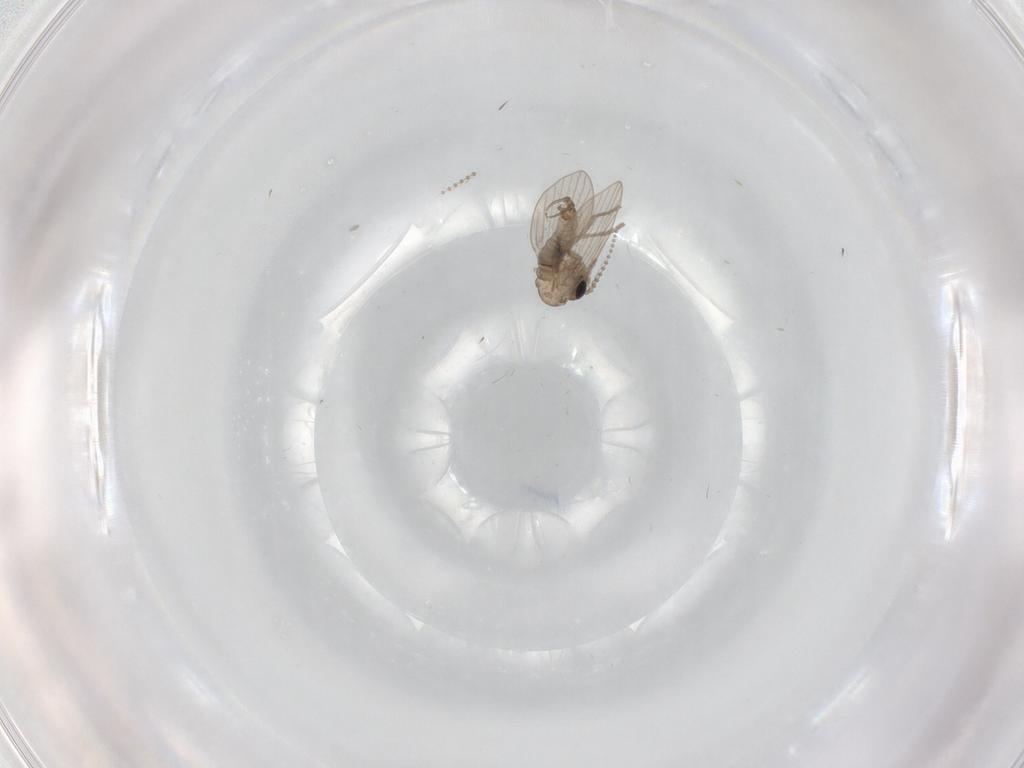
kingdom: Animalia
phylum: Arthropoda
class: Insecta
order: Diptera
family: Psychodidae
